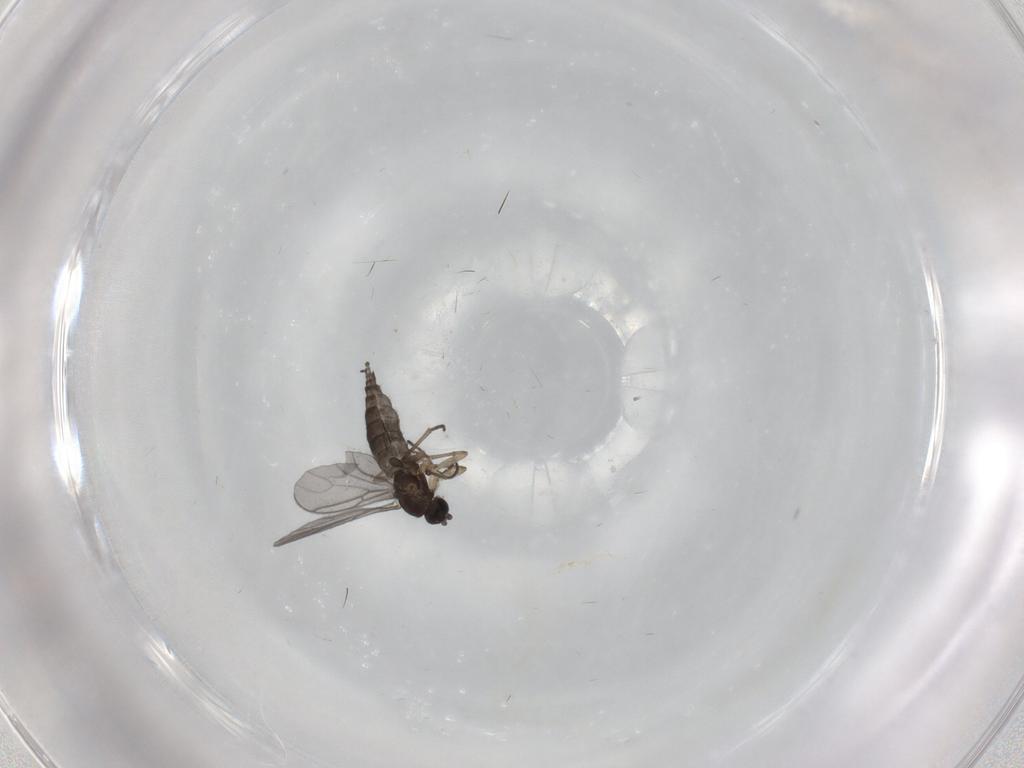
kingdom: Animalia
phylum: Arthropoda
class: Insecta
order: Diptera
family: Sciaridae
